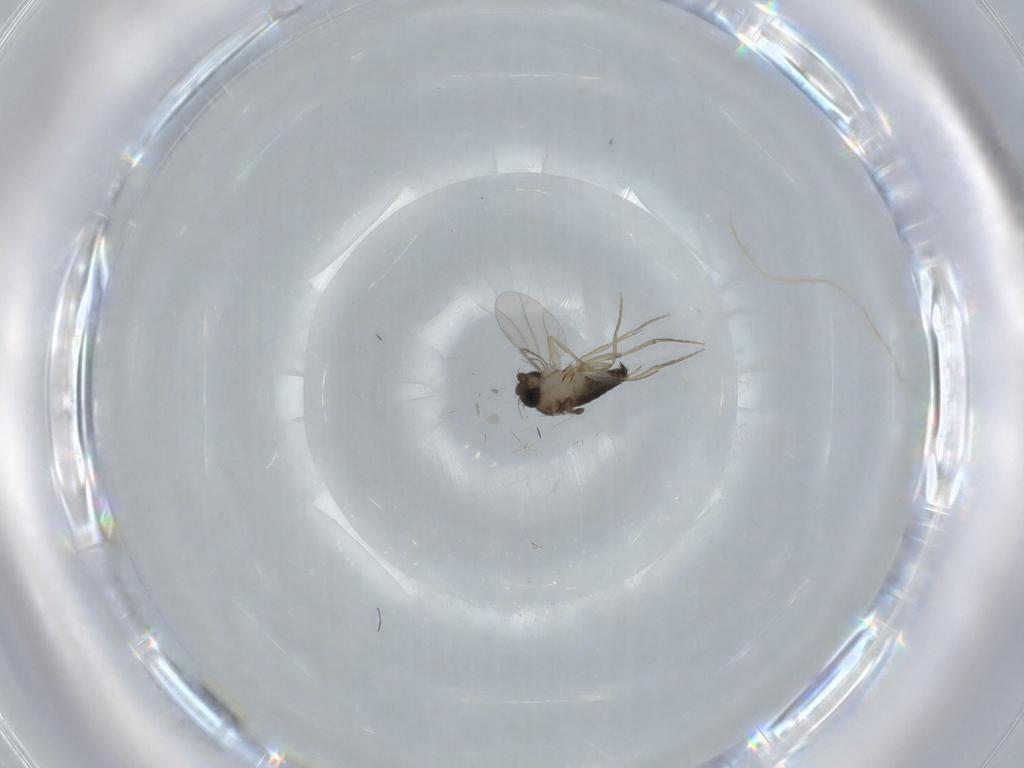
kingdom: Animalia
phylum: Arthropoda
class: Insecta
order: Diptera
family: Phoridae
